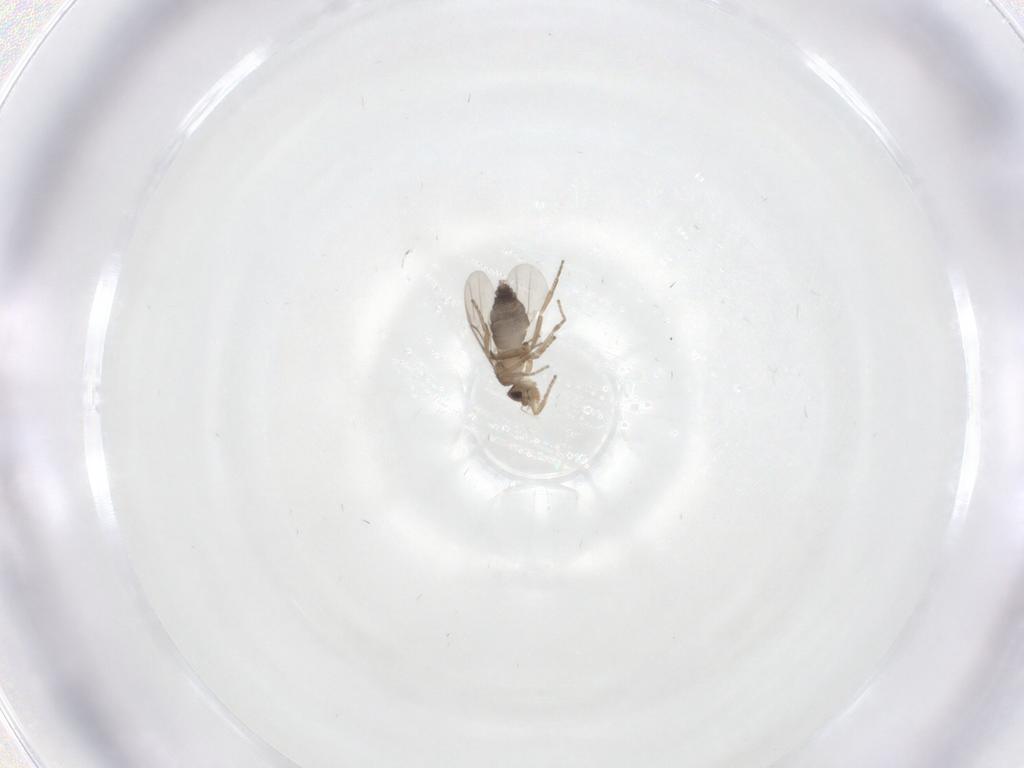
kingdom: Animalia
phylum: Arthropoda
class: Insecta
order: Diptera
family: Phoridae
